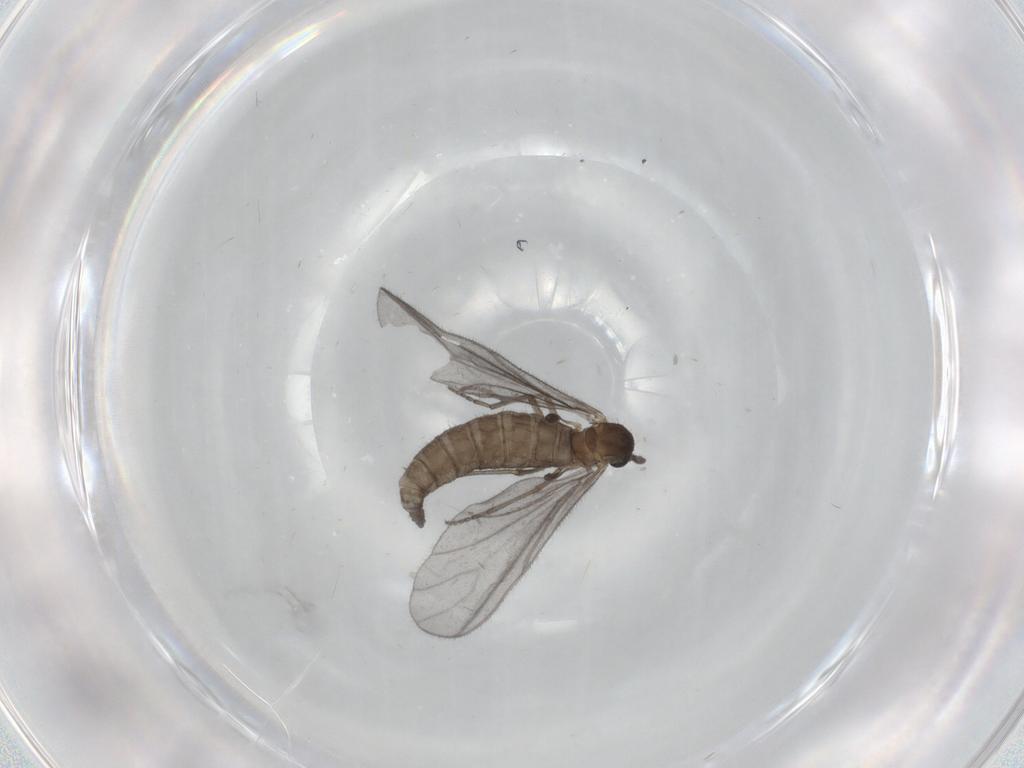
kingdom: Animalia
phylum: Arthropoda
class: Insecta
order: Diptera
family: Sciaridae
